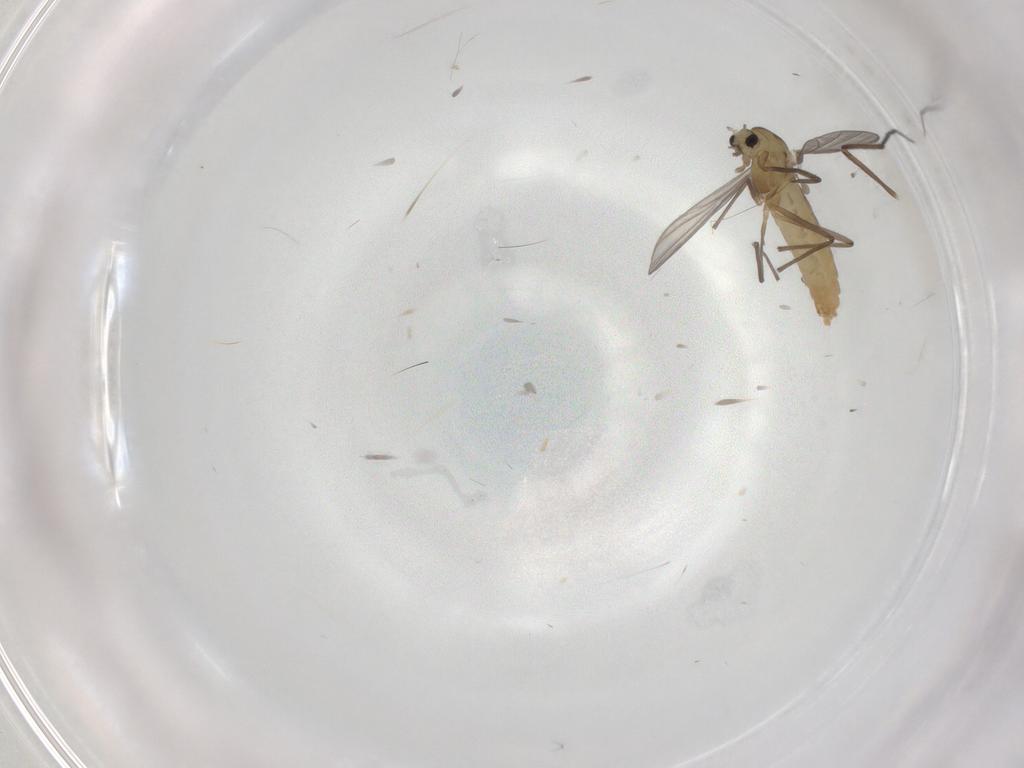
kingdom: Animalia
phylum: Arthropoda
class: Insecta
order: Diptera
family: Chironomidae
